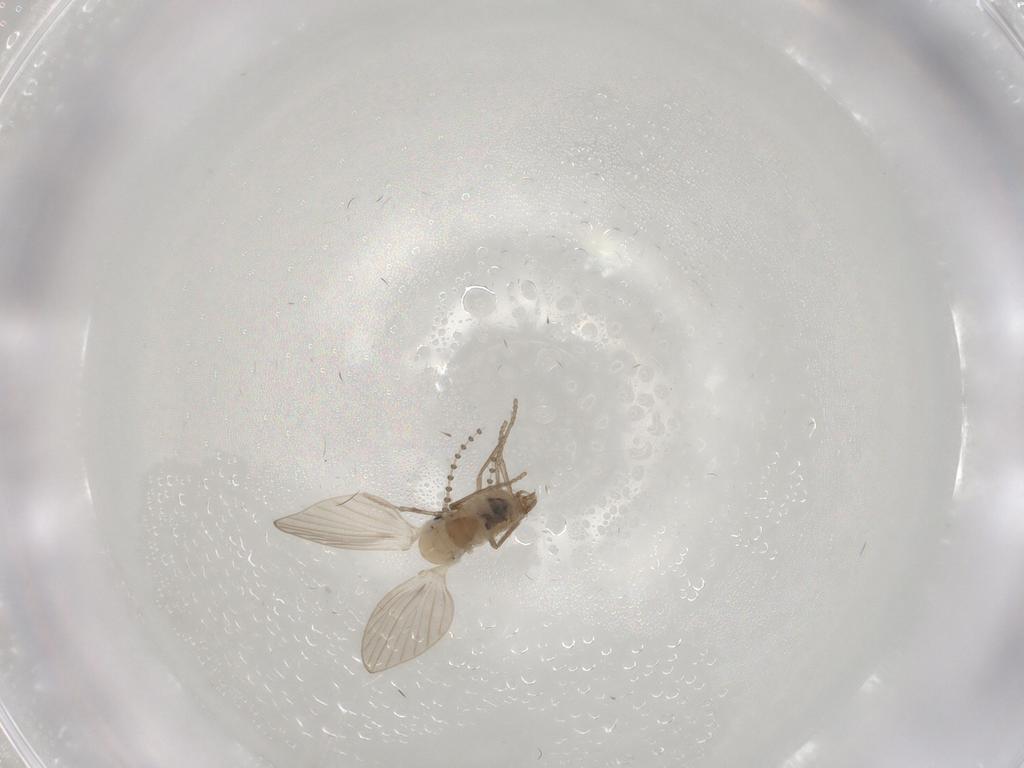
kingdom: Animalia
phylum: Arthropoda
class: Insecta
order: Diptera
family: Psychodidae
